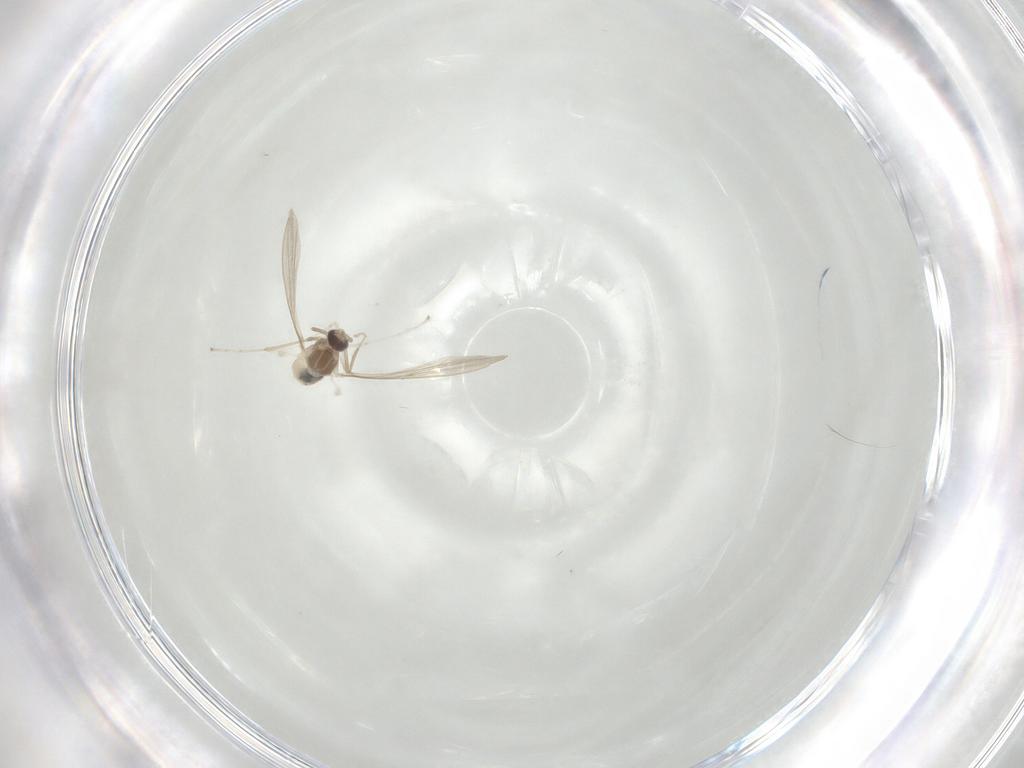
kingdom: Animalia
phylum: Arthropoda
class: Insecta
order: Diptera
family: Cecidomyiidae
